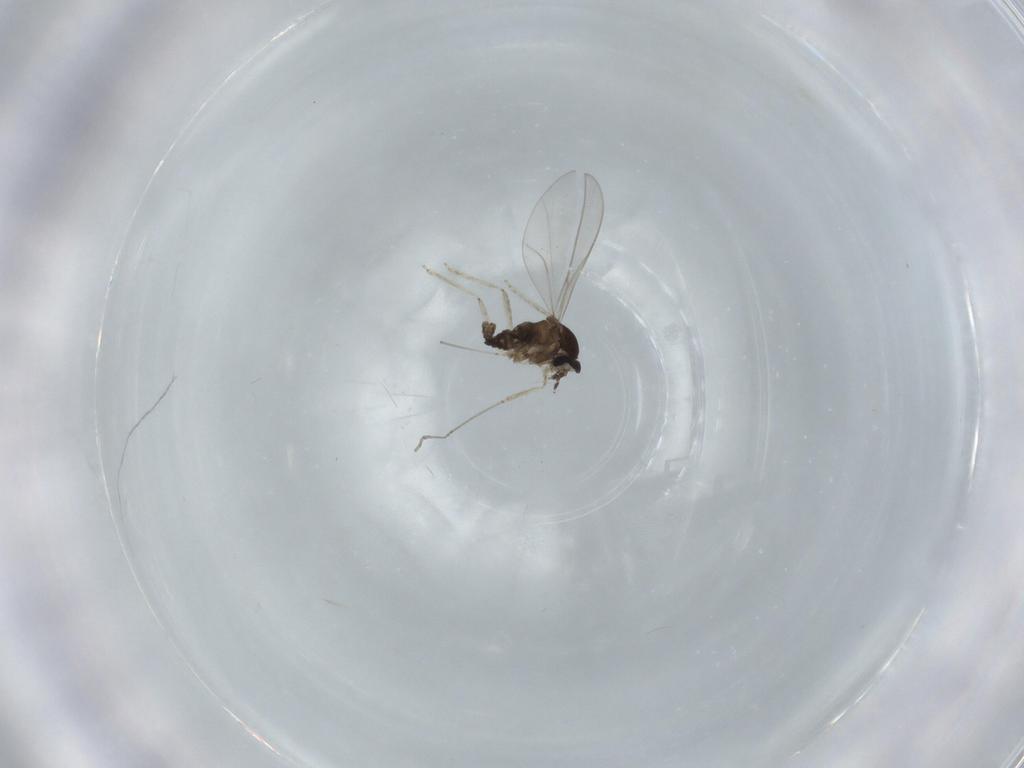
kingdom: Animalia
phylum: Arthropoda
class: Insecta
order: Diptera
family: Cecidomyiidae
